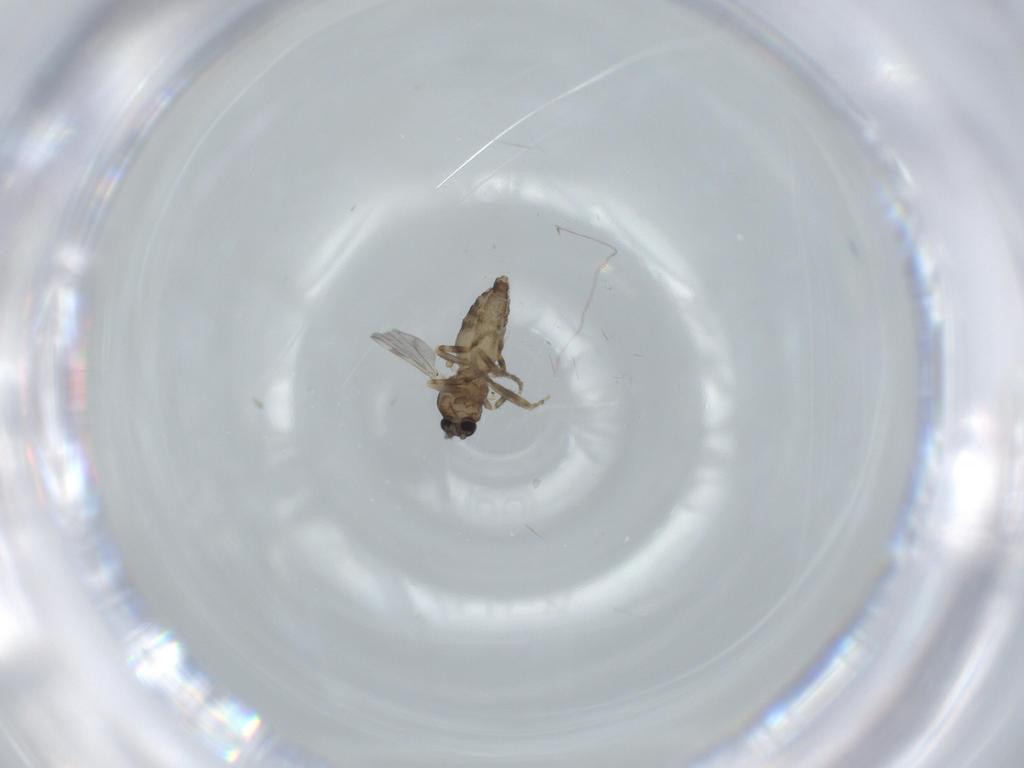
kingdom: Animalia
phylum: Arthropoda
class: Insecta
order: Diptera
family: Ceratopogonidae
